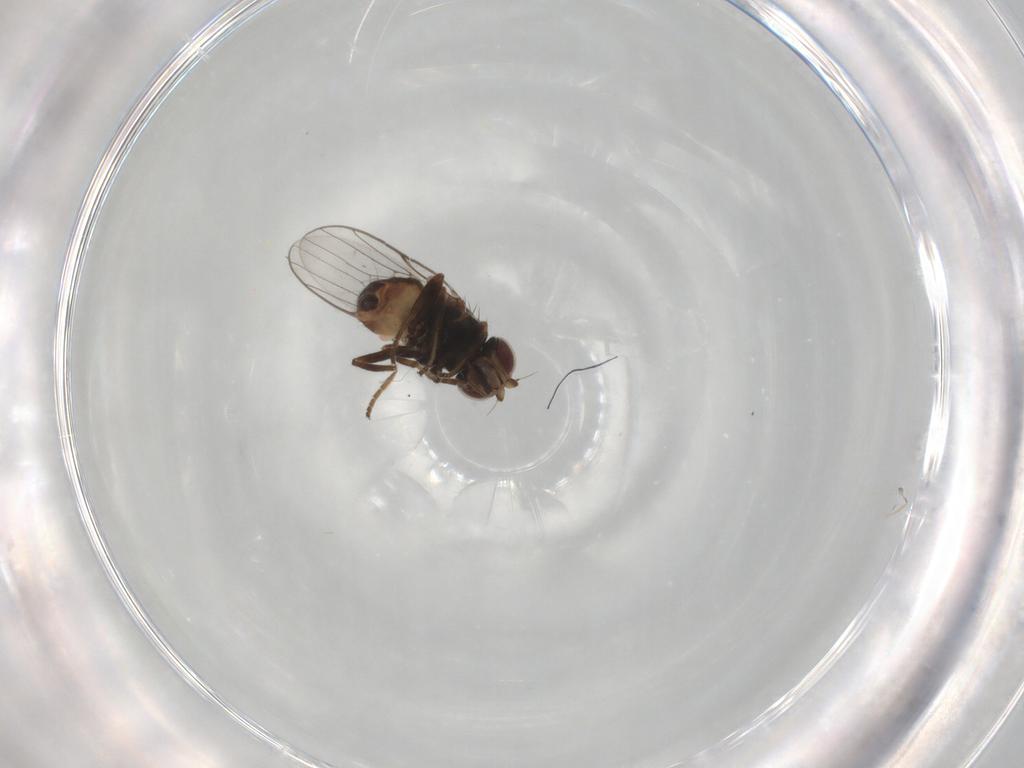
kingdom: Animalia
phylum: Arthropoda
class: Insecta
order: Diptera
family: Chloropidae
